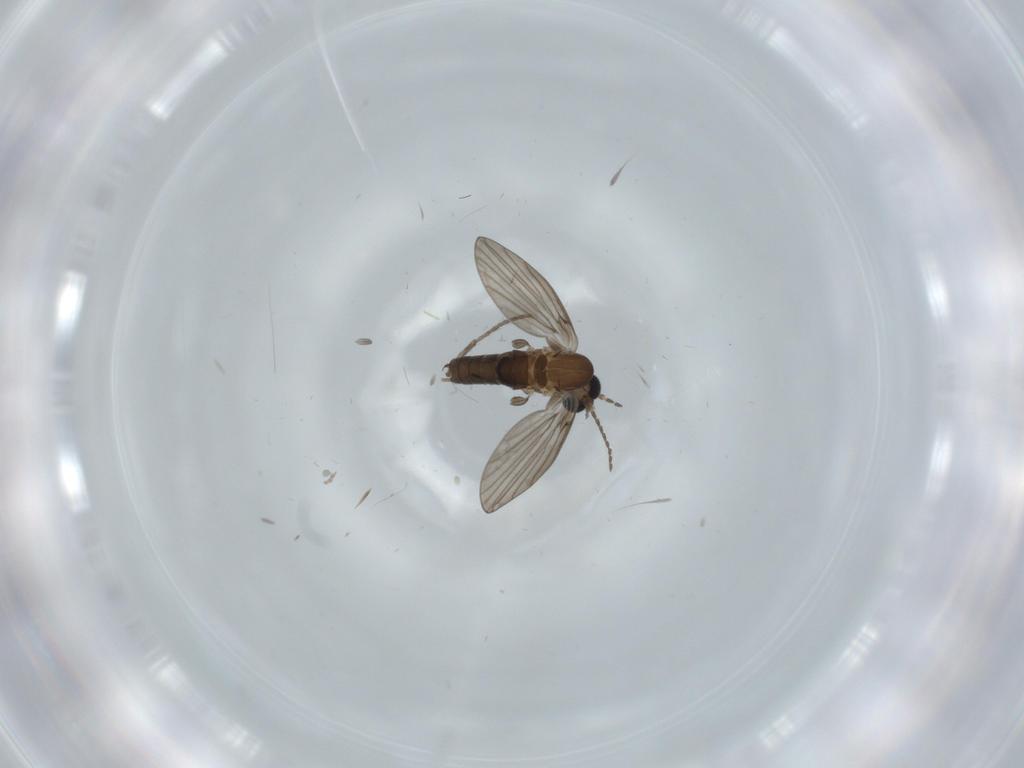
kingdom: Animalia
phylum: Arthropoda
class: Insecta
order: Diptera
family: Ceratopogonidae
